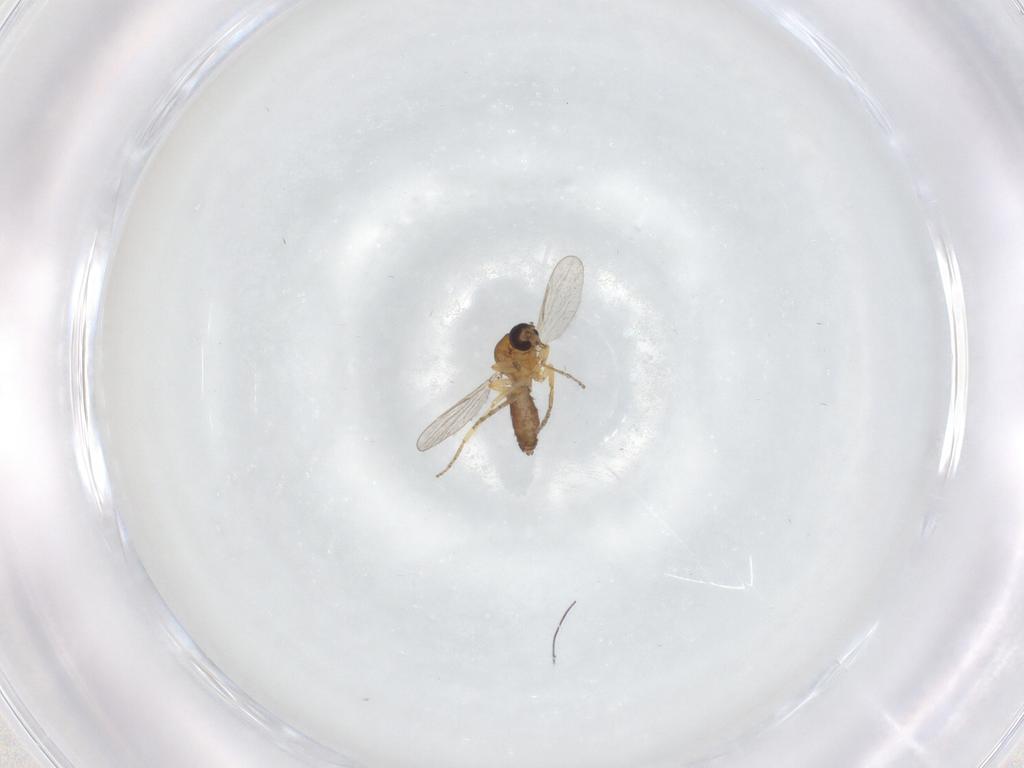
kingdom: Animalia
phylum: Arthropoda
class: Insecta
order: Diptera
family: Ceratopogonidae
